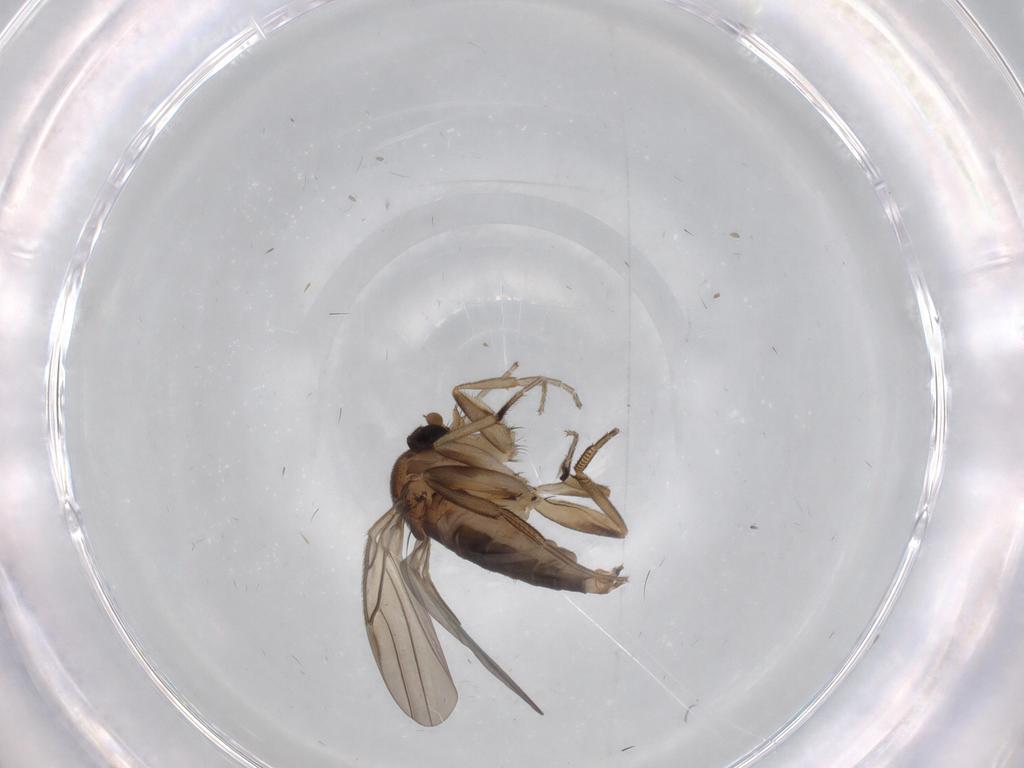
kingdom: Animalia
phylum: Arthropoda
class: Insecta
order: Diptera
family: Phoridae
